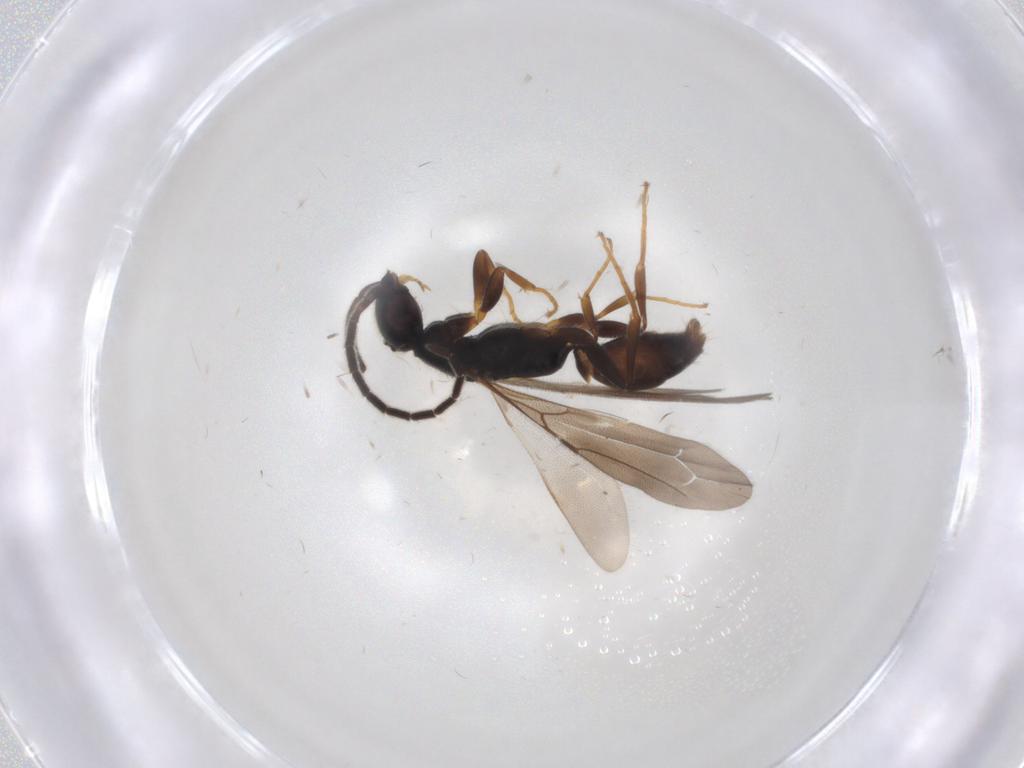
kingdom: Animalia
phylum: Arthropoda
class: Insecta
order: Hymenoptera
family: Bethylidae
